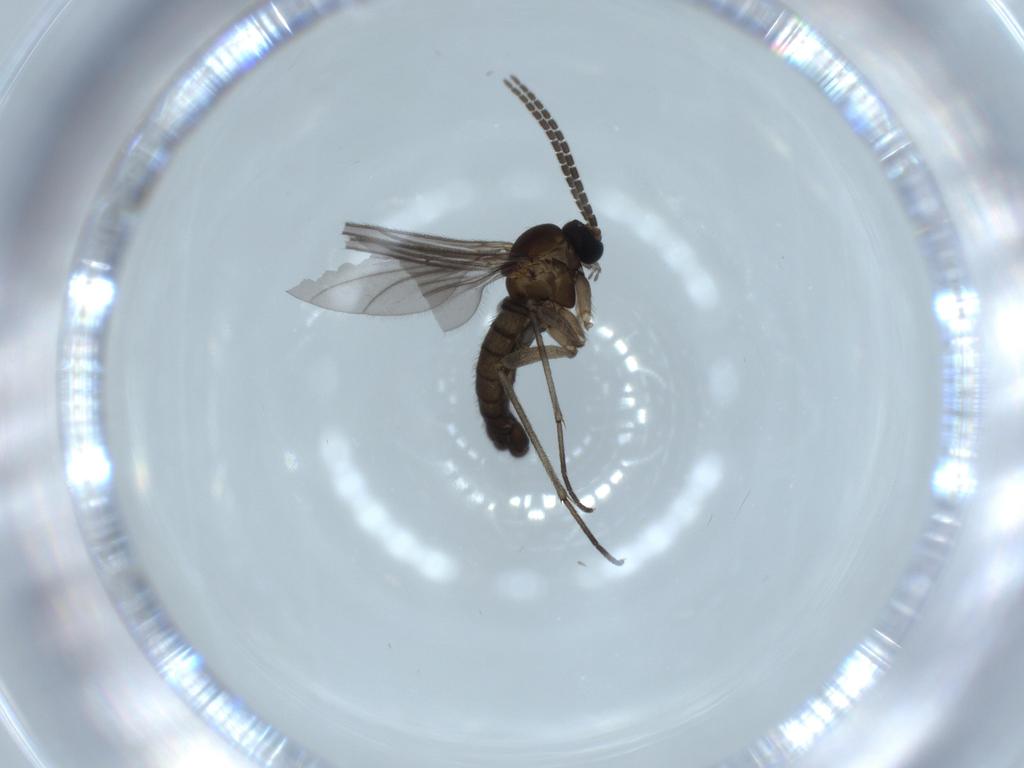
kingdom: Animalia
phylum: Arthropoda
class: Insecta
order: Diptera
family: Sciaridae
